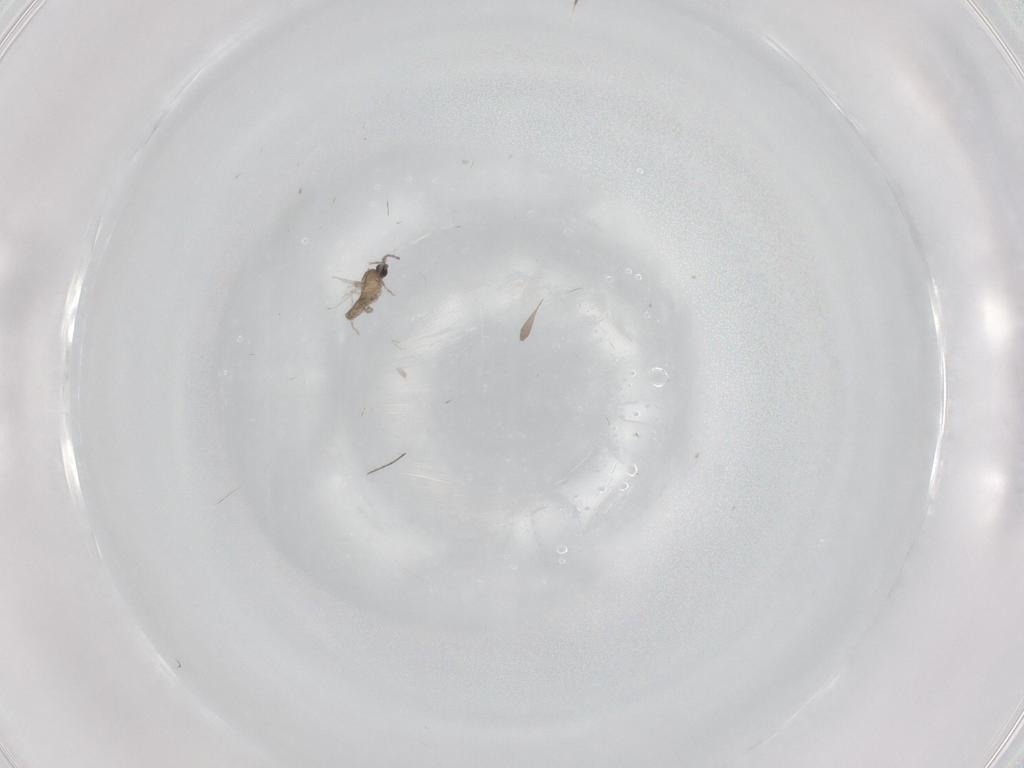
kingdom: Animalia
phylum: Arthropoda
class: Insecta
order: Diptera
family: Cecidomyiidae
